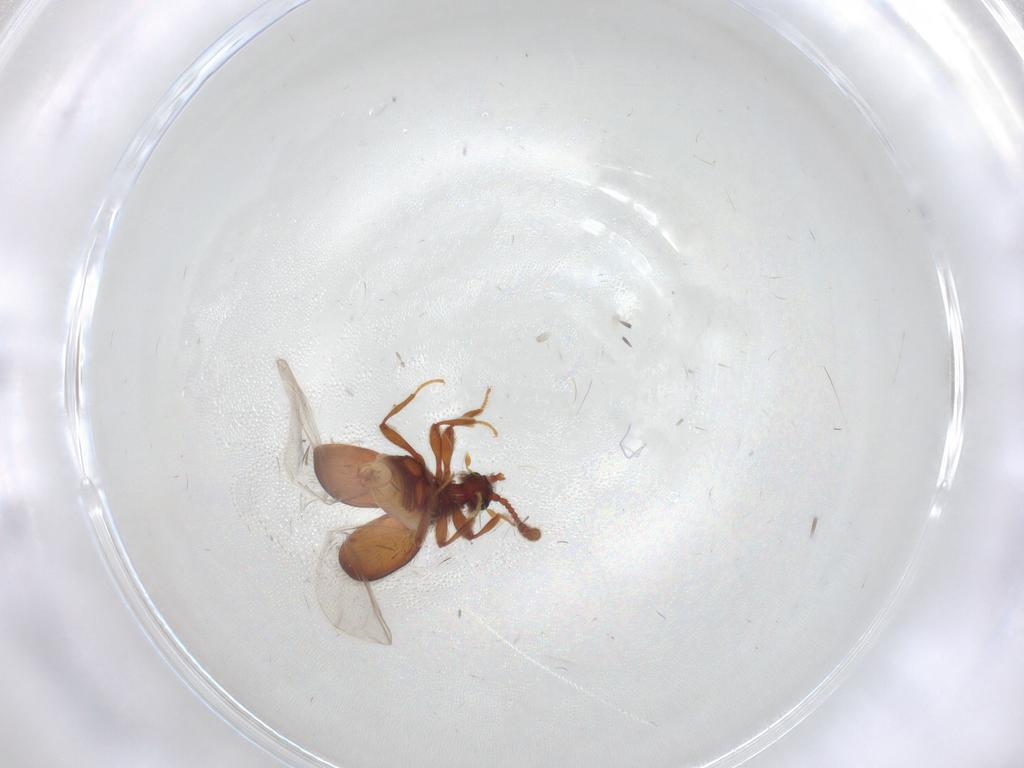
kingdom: Animalia
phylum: Arthropoda
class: Insecta
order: Coleoptera
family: Staphylinidae
